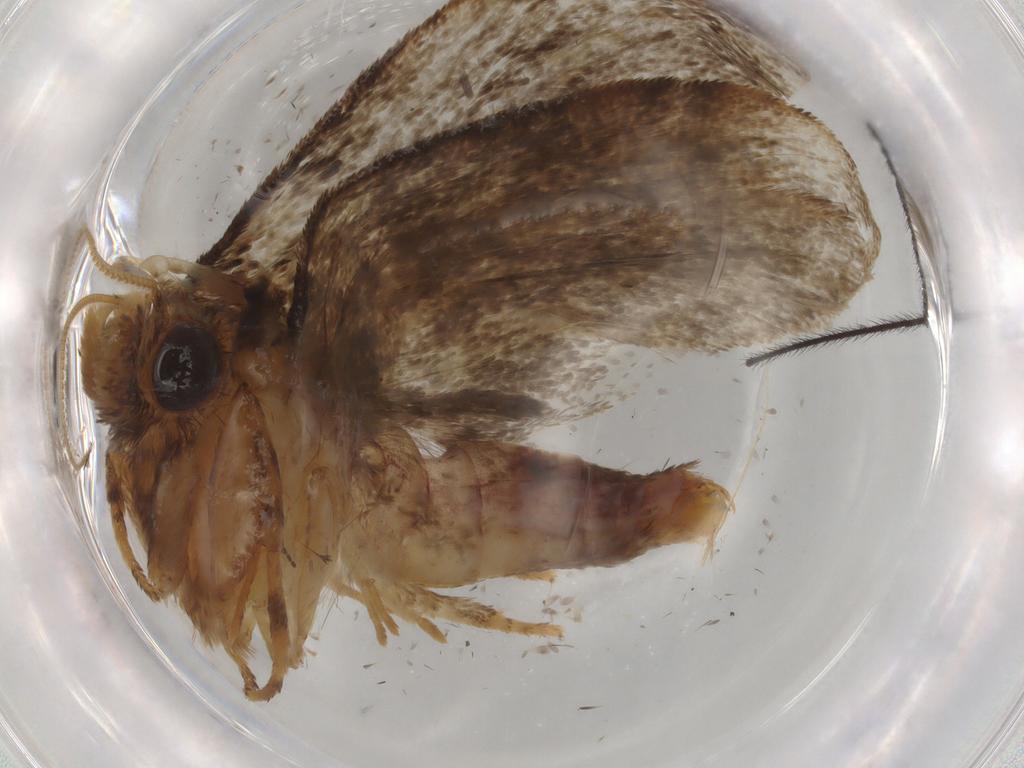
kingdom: Animalia
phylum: Arthropoda
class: Insecta
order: Lepidoptera
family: Tineidae
